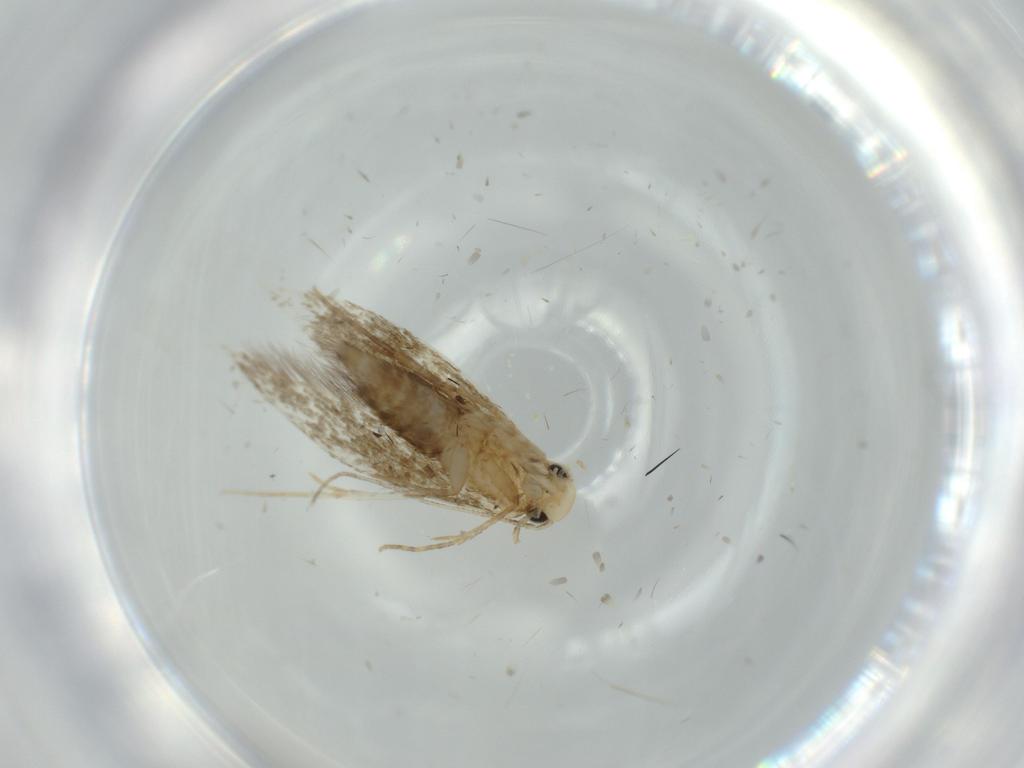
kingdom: Animalia
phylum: Arthropoda
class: Insecta
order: Lepidoptera
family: Tineidae
